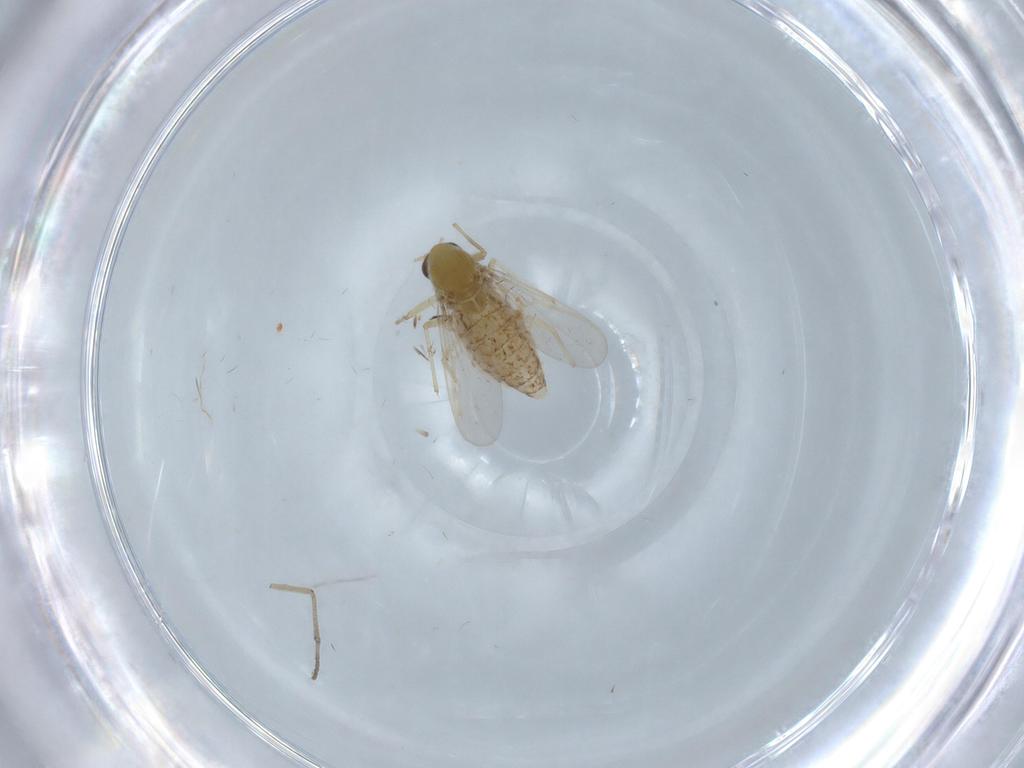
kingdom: Animalia
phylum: Arthropoda
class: Insecta
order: Diptera
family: Chironomidae
